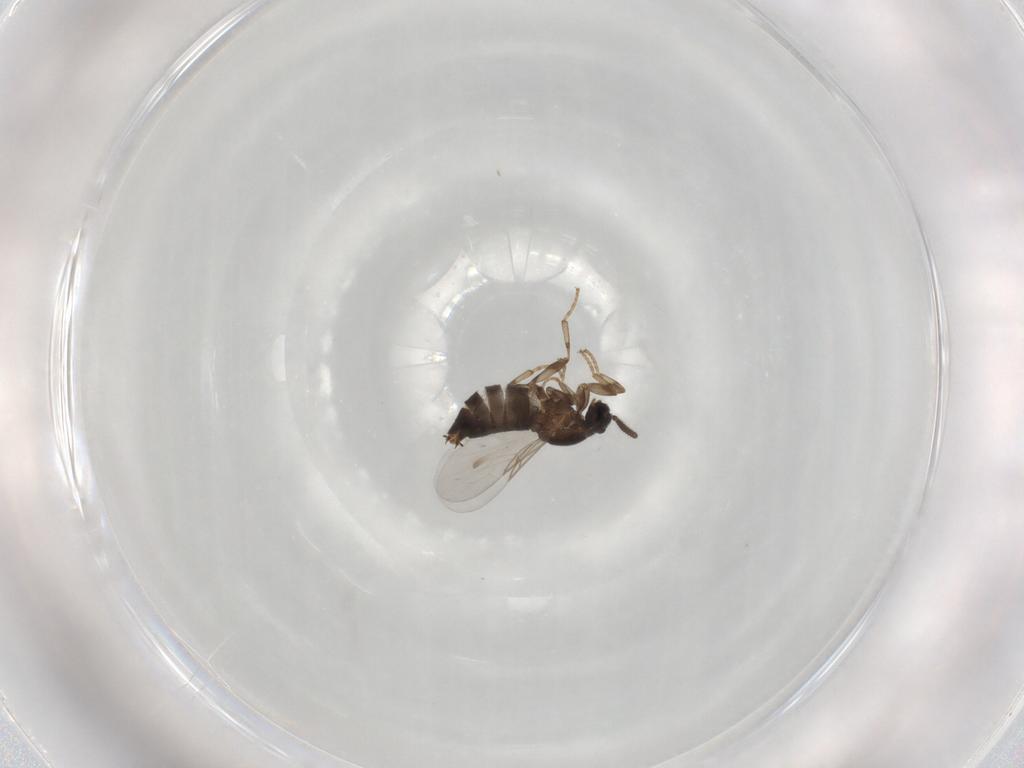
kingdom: Animalia
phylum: Arthropoda
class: Insecta
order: Diptera
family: Scatopsidae
